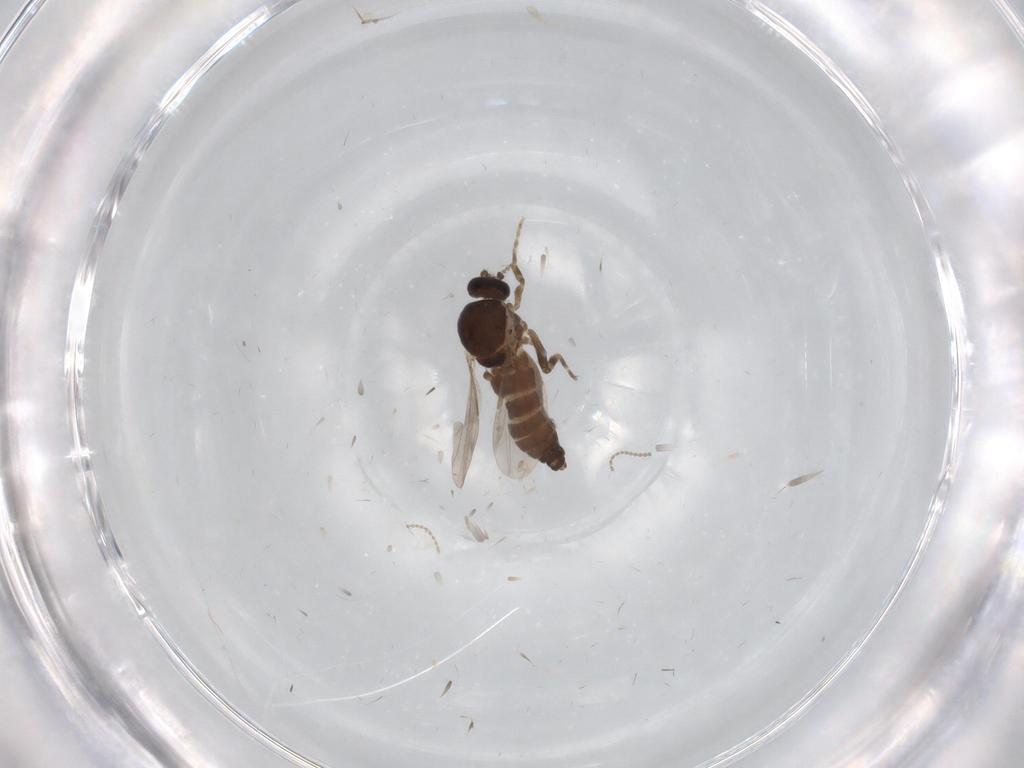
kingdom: Animalia
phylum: Arthropoda
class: Insecta
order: Diptera
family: Ceratopogonidae
